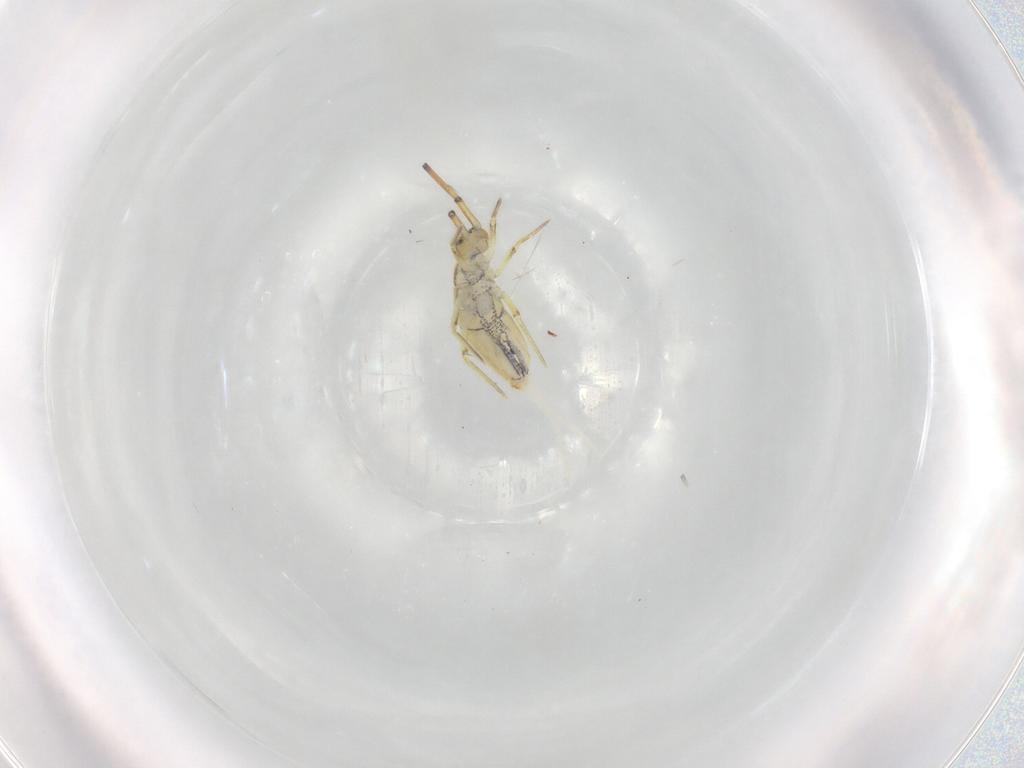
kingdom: Animalia
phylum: Arthropoda
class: Collembola
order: Entomobryomorpha
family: Entomobryidae
